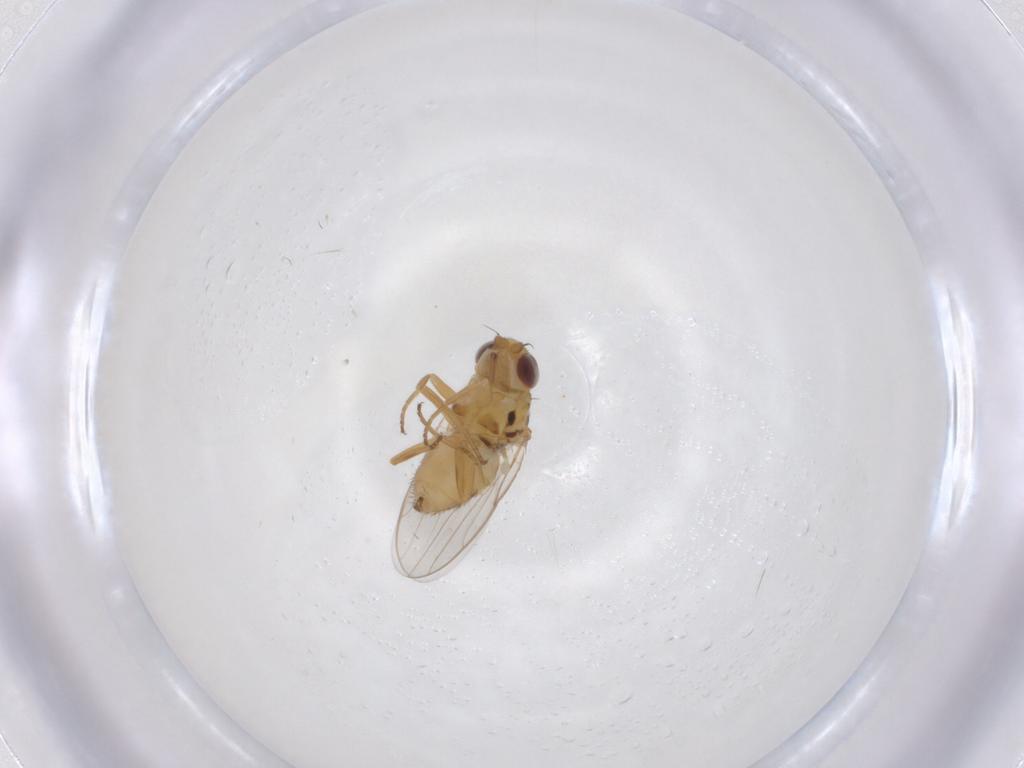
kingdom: Animalia
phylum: Arthropoda
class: Insecta
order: Diptera
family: Chloropidae
